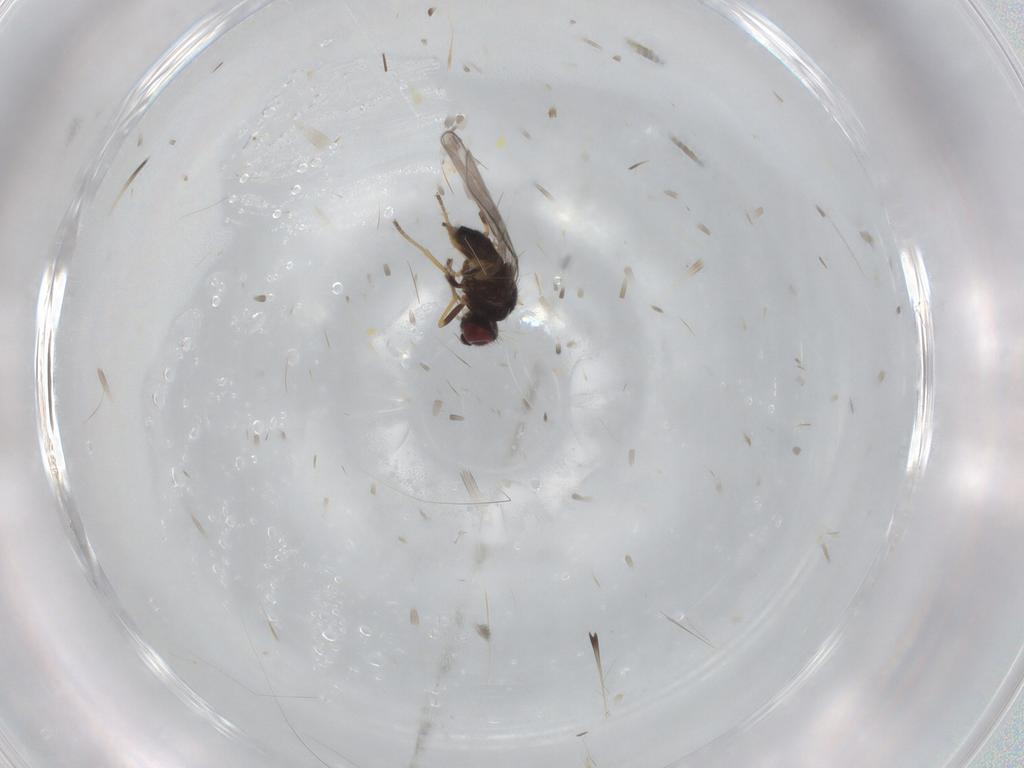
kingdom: Animalia
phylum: Arthropoda
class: Insecta
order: Diptera
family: Chloropidae
